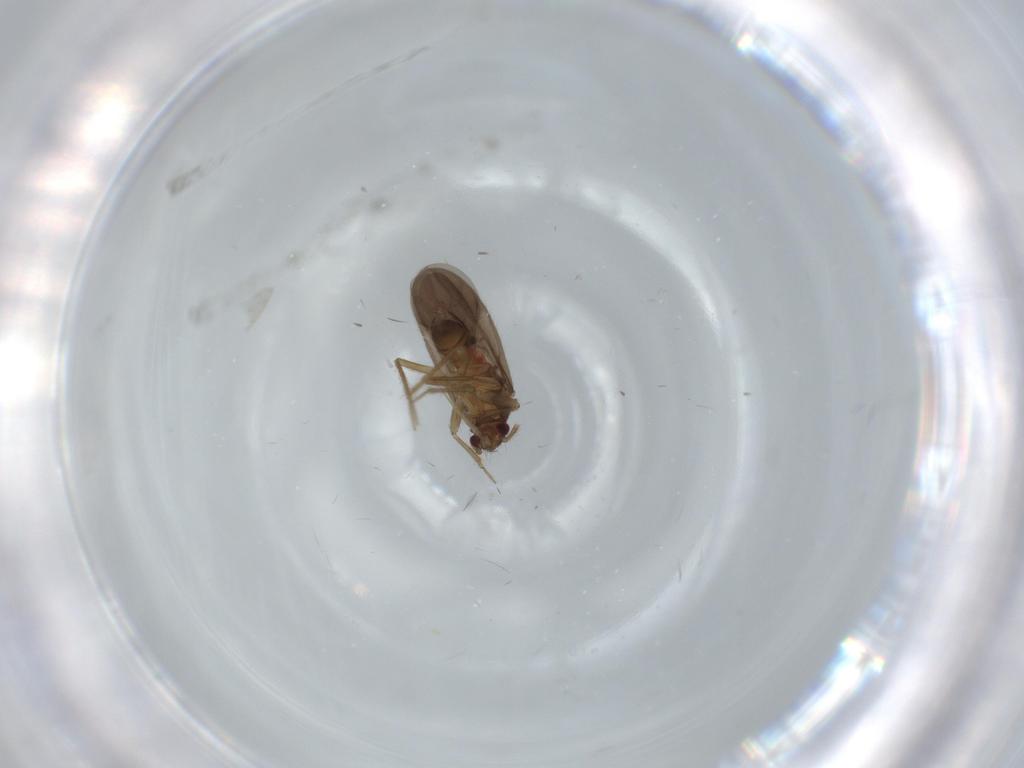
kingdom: Animalia
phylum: Arthropoda
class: Insecta
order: Hemiptera
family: Ceratocombidae
